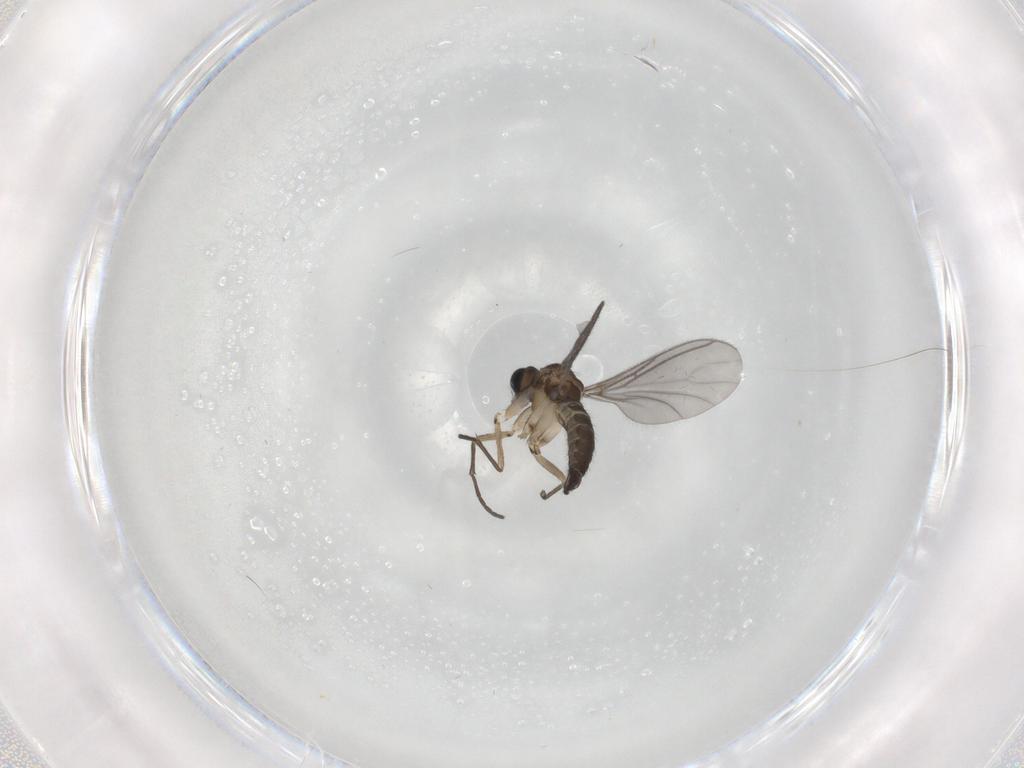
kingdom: Animalia
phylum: Arthropoda
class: Insecta
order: Diptera
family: Sciaridae
